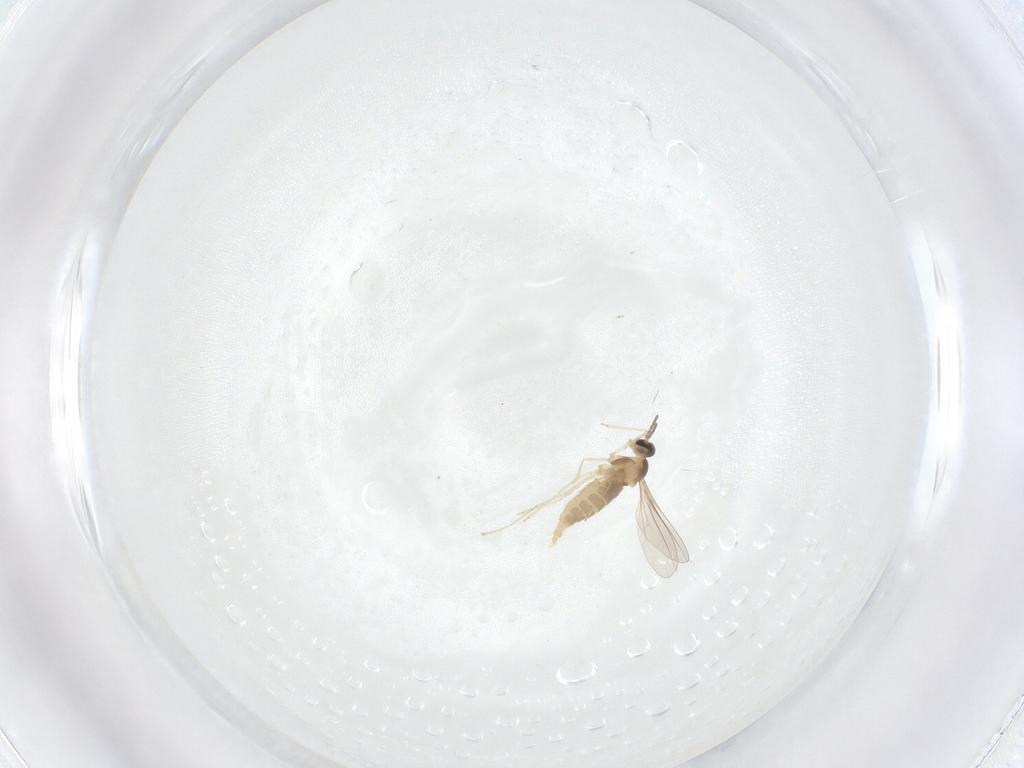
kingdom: Animalia
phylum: Arthropoda
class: Insecta
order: Diptera
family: Cecidomyiidae
